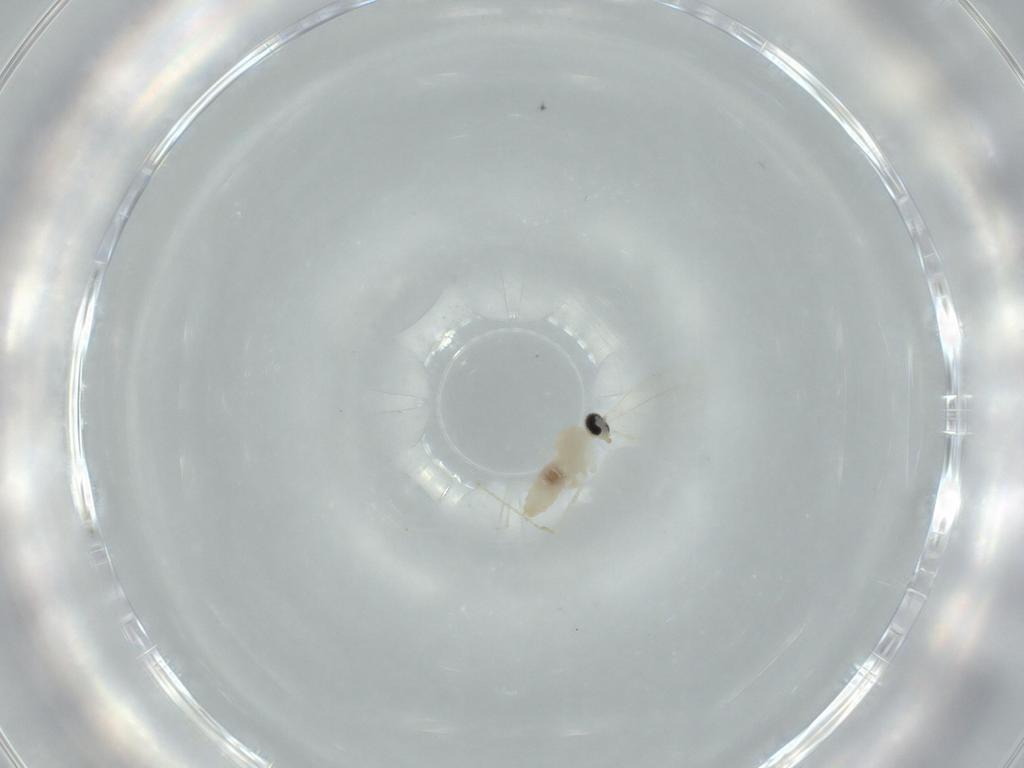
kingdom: Animalia
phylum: Arthropoda
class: Insecta
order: Diptera
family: Cecidomyiidae
